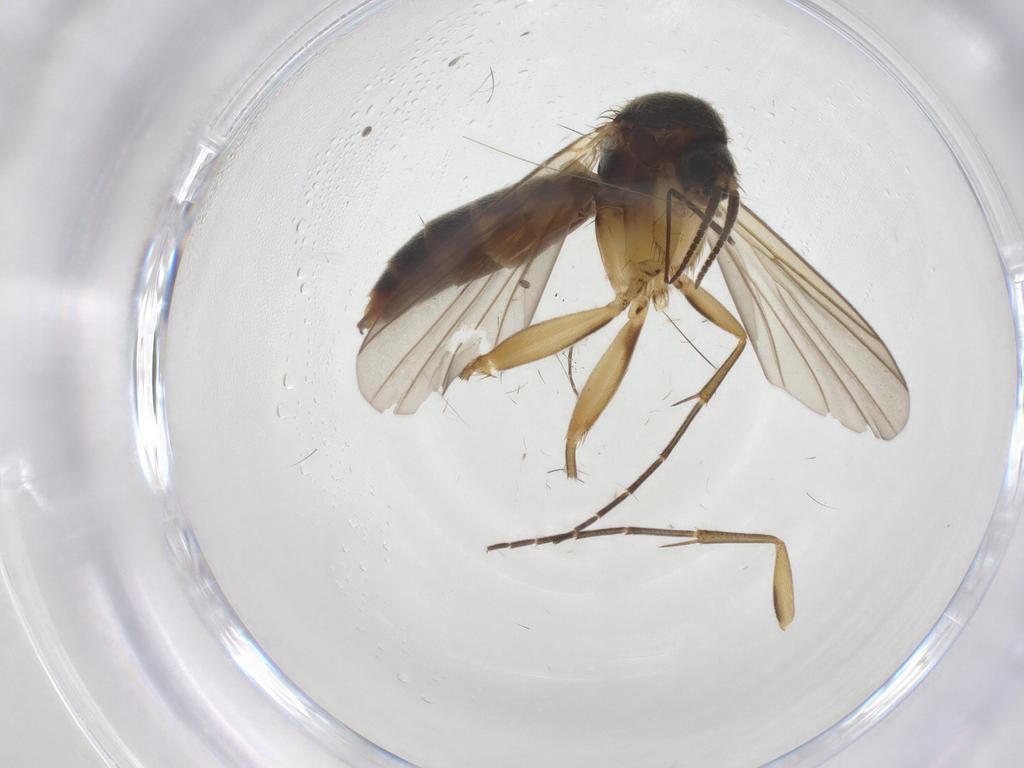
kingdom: Animalia
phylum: Arthropoda
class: Insecta
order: Diptera
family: Empididae
